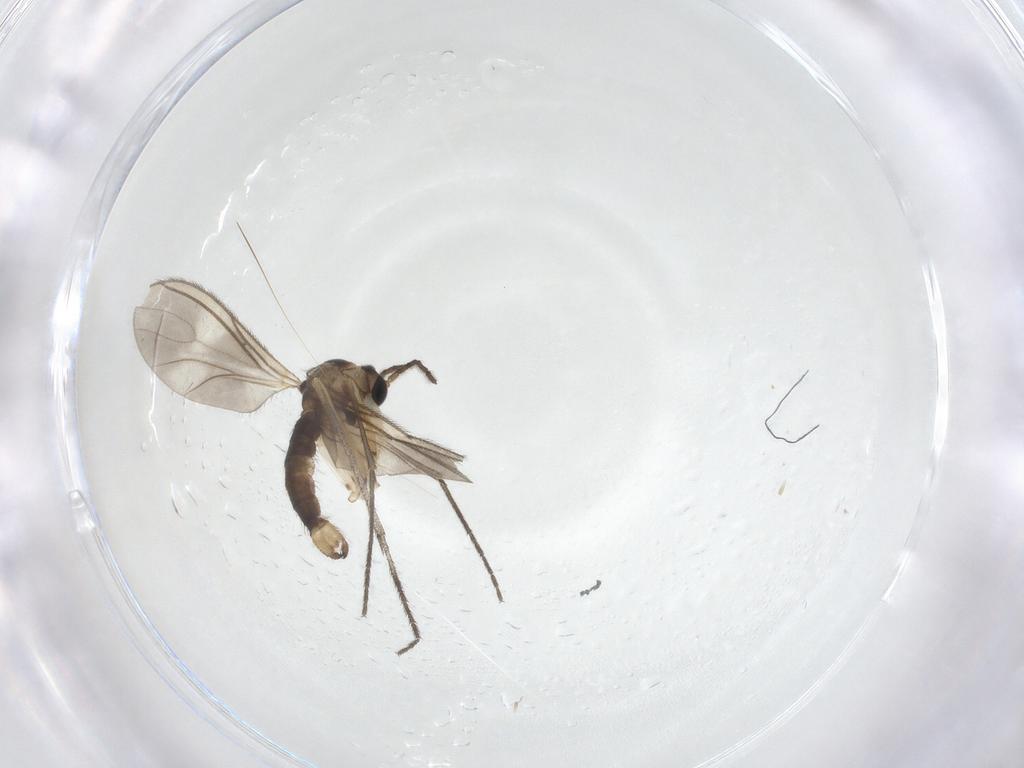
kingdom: Animalia
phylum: Arthropoda
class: Insecta
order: Diptera
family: Sciaridae
